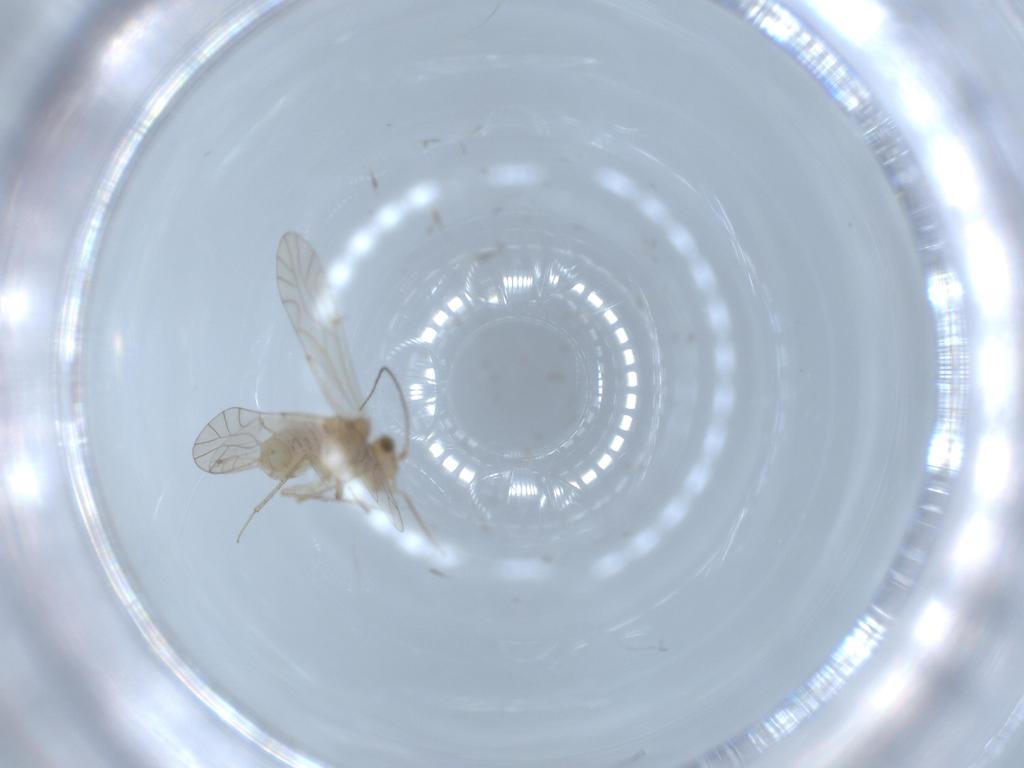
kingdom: Animalia
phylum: Arthropoda
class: Insecta
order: Psocodea
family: Lachesillidae
